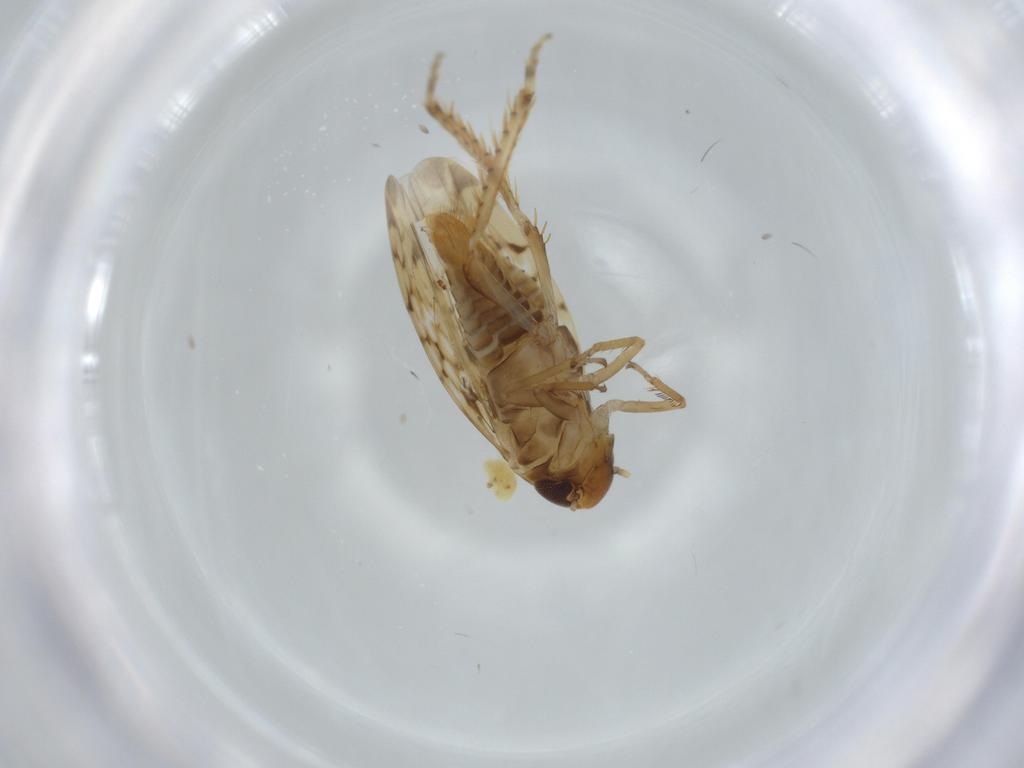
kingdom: Animalia
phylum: Arthropoda
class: Insecta
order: Hemiptera
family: Cicadellidae
